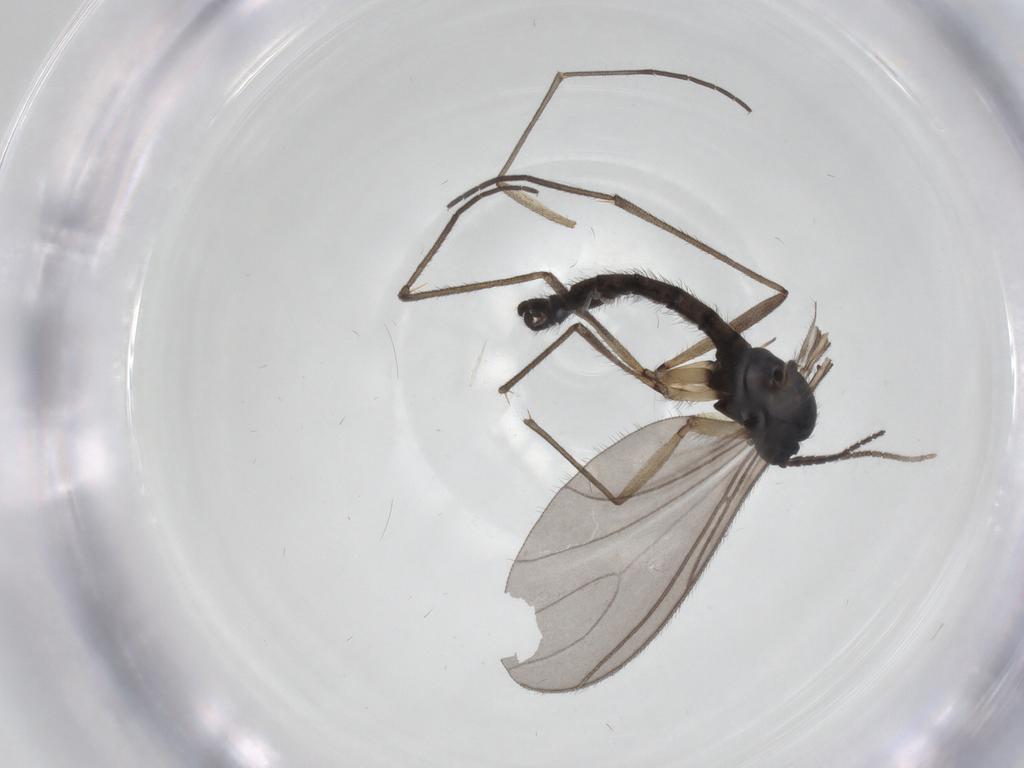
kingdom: Animalia
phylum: Arthropoda
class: Insecta
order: Diptera
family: Sciaridae
